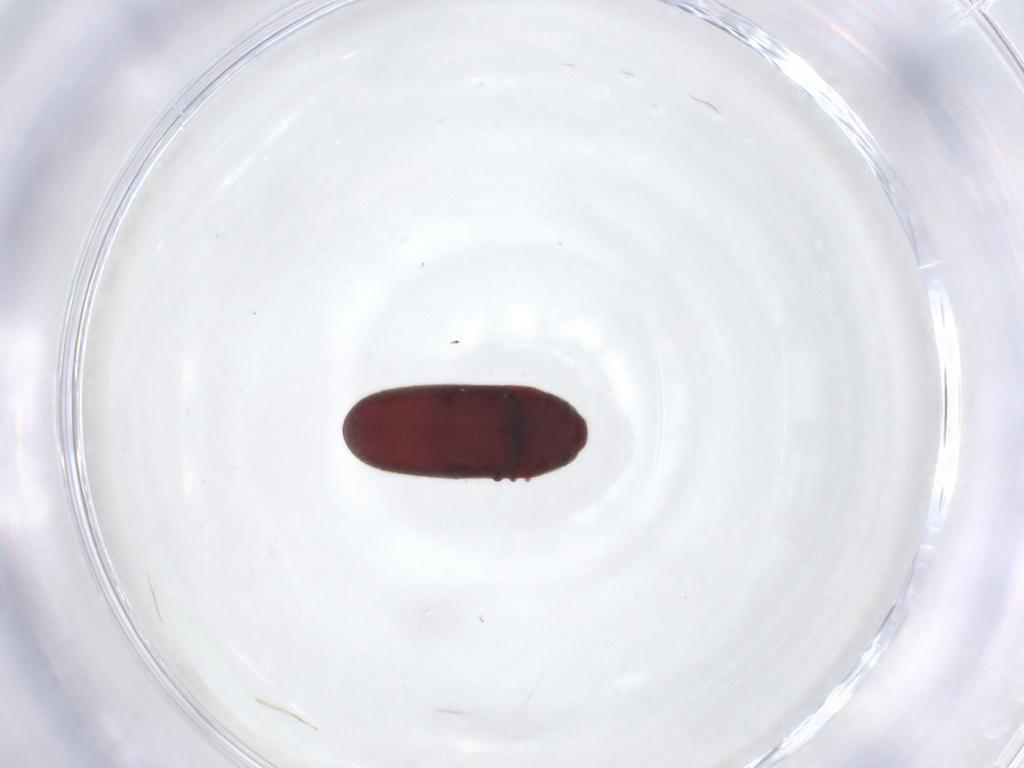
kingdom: Animalia
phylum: Arthropoda
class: Insecta
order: Coleoptera
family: Throscidae
